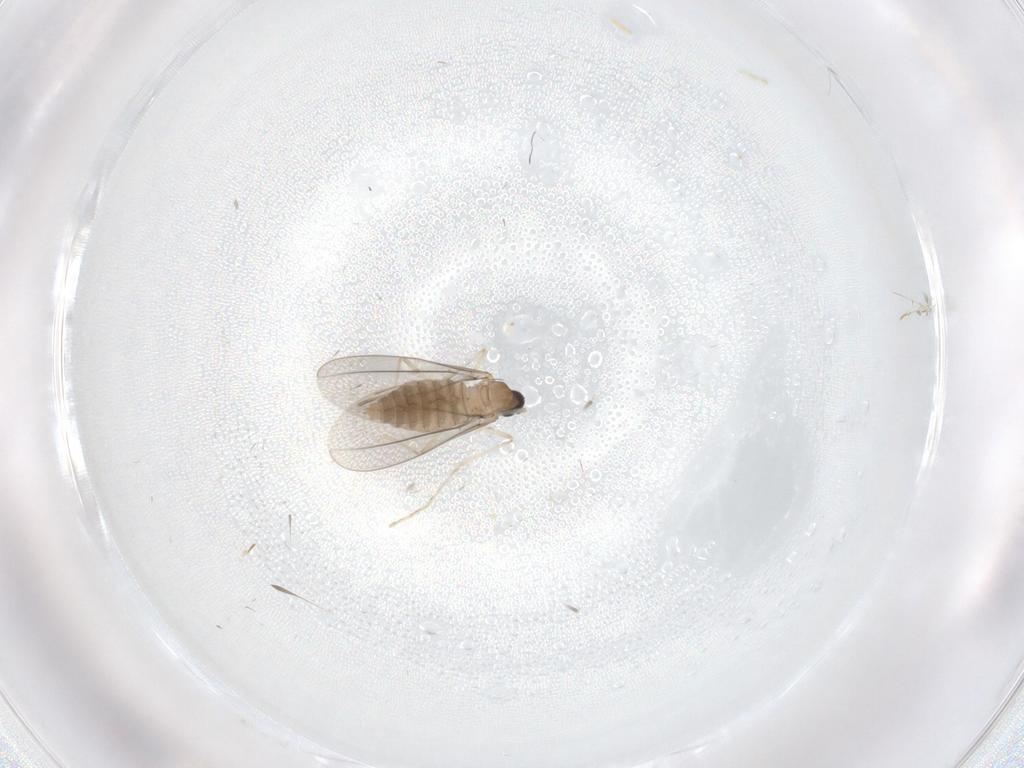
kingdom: Animalia
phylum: Arthropoda
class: Insecta
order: Diptera
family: Cecidomyiidae
